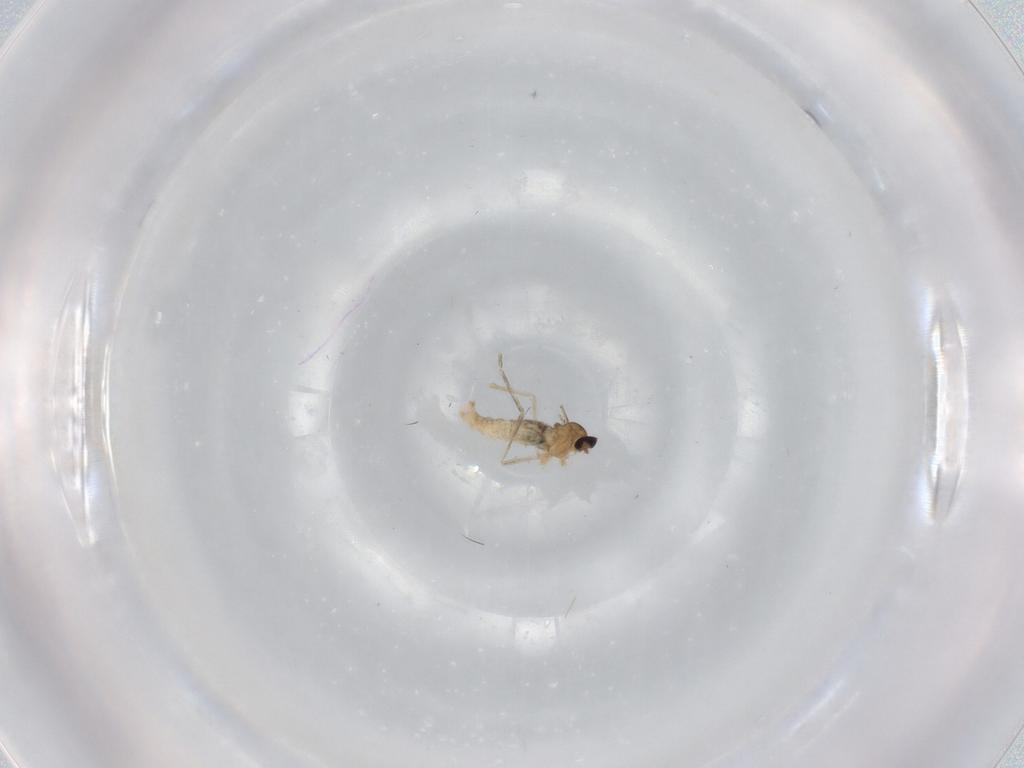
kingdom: Animalia
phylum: Arthropoda
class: Insecta
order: Diptera
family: Cecidomyiidae
